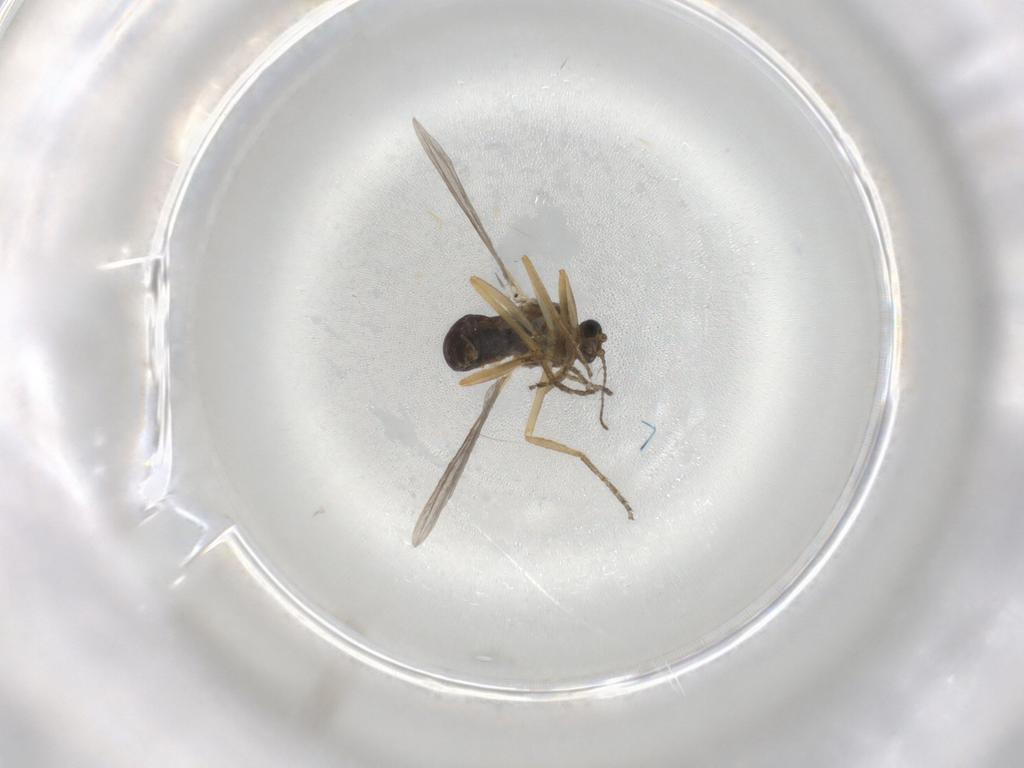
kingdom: Animalia
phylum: Arthropoda
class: Insecta
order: Diptera
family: Ceratopogonidae
